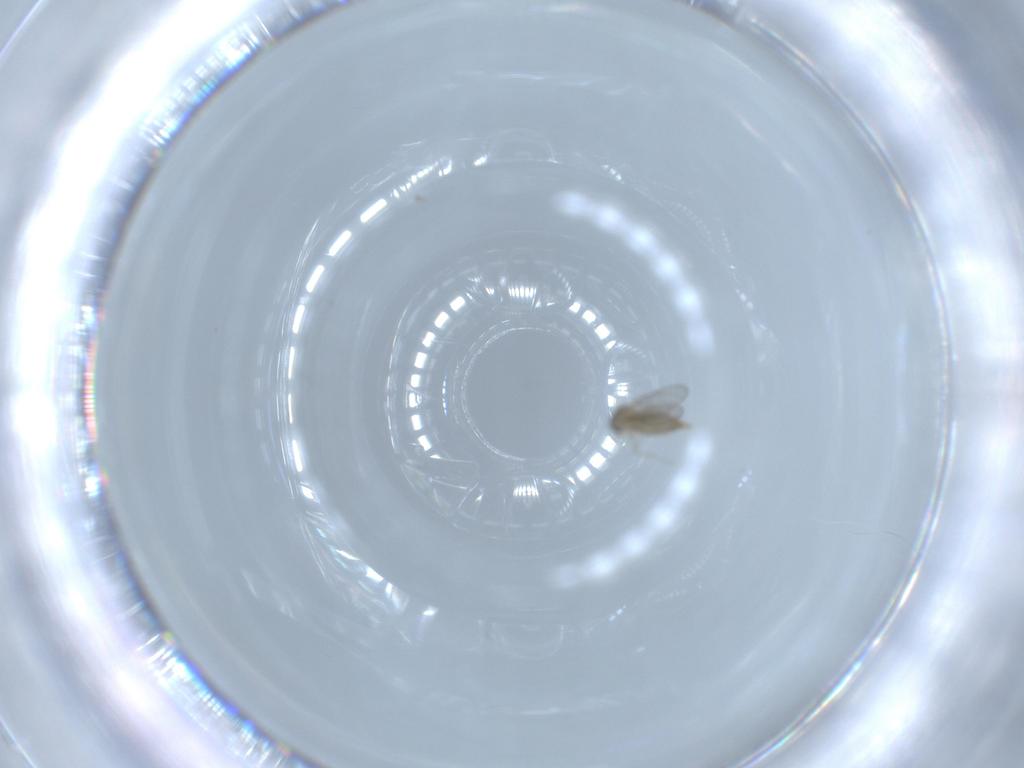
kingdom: Animalia
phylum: Arthropoda
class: Insecta
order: Diptera
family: Cecidomyiidae
